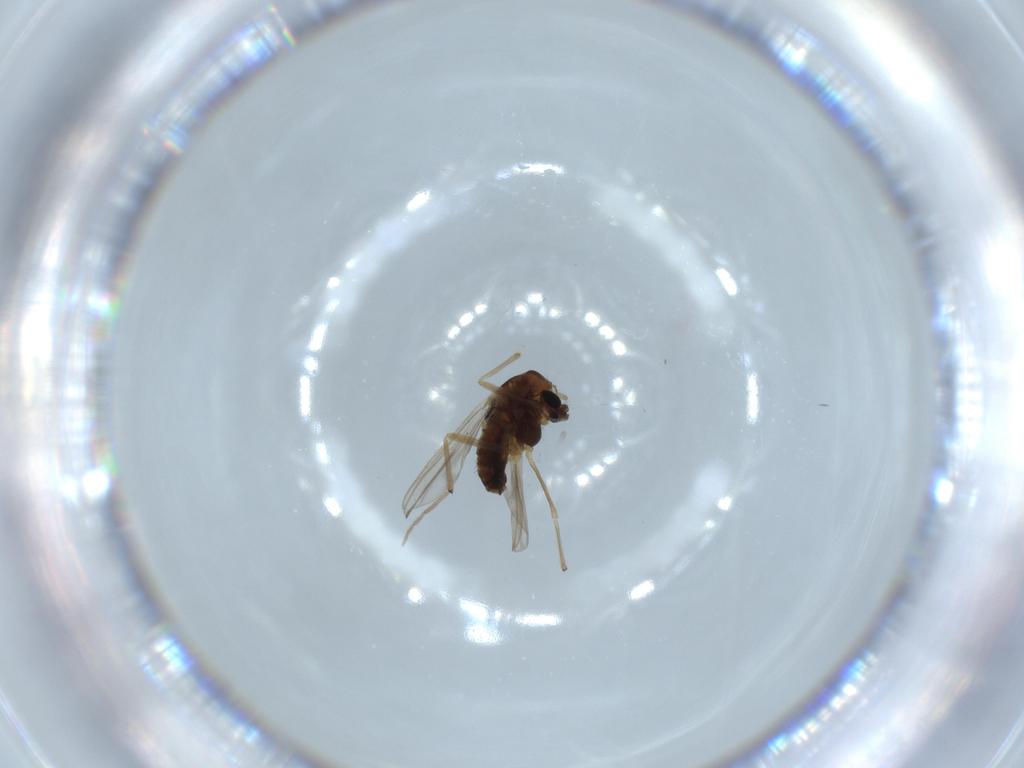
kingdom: Animalia
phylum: Arthropoda
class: Insecta
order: Diptera
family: Chironomidae
